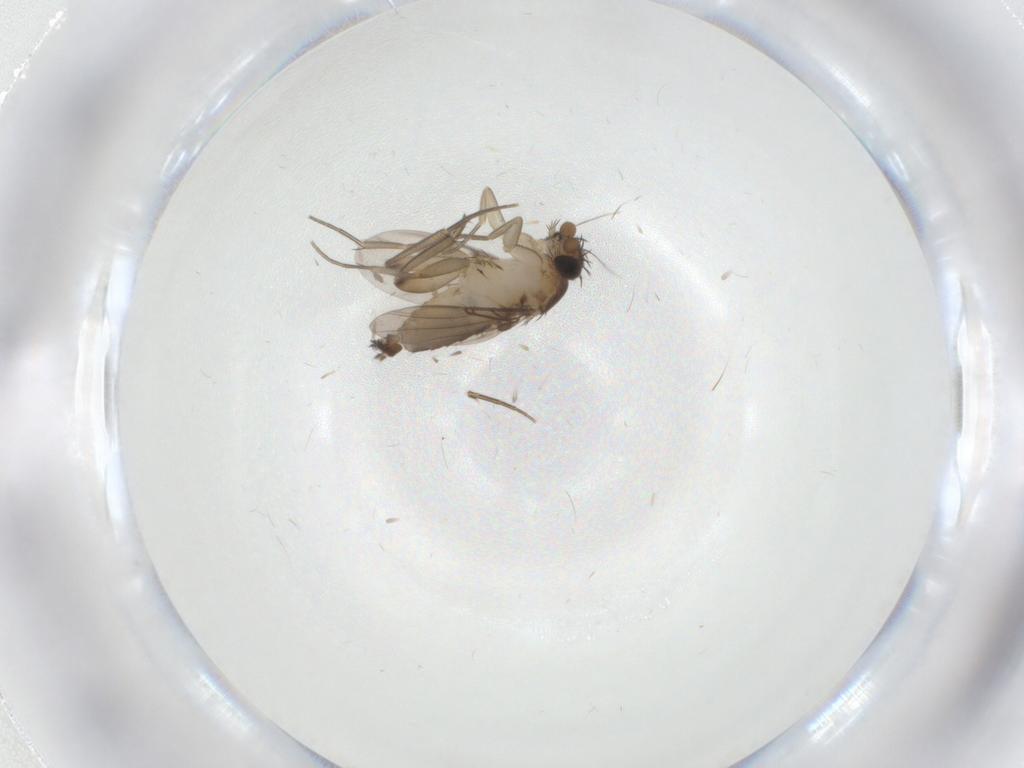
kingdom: Animalia
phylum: Arthropoda
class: Insecta
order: Diptera
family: Phoridae
